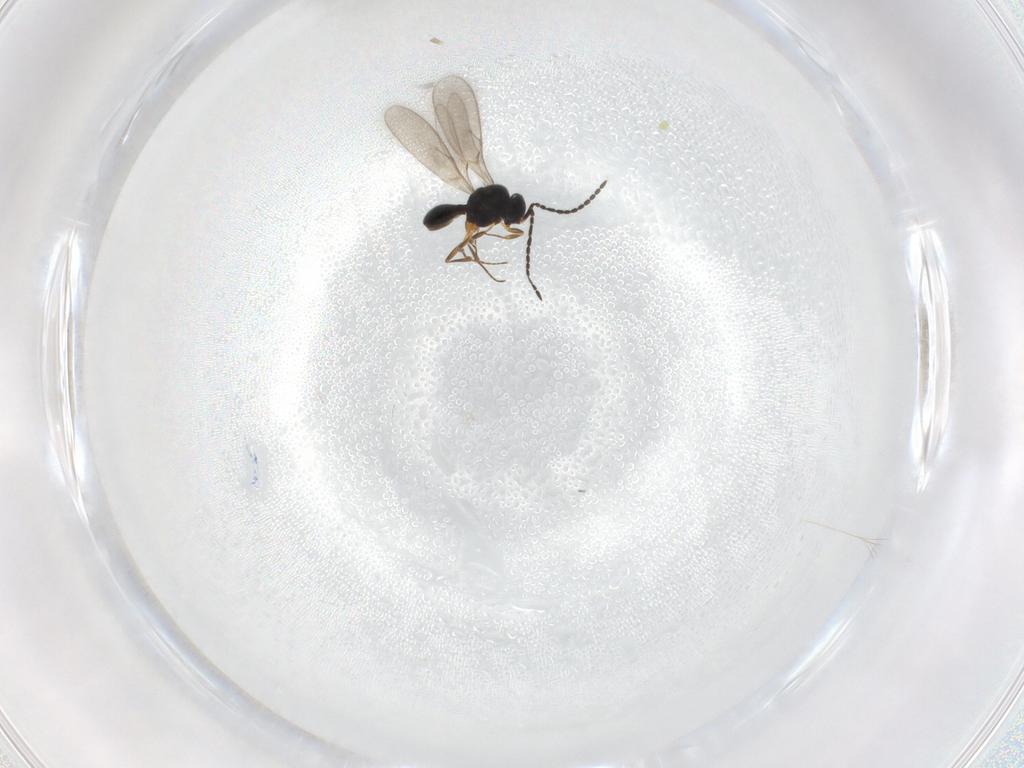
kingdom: Animalia
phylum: Arthropoda
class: Insecta
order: Hymenoptera
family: Scelionidae
